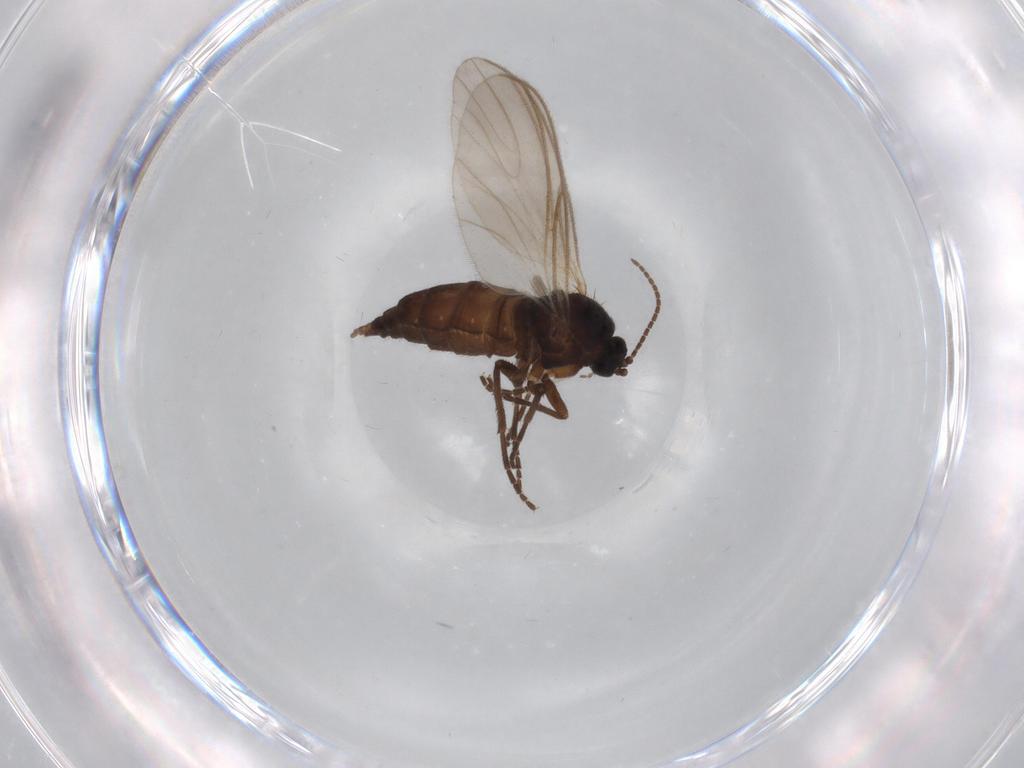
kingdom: Animalia
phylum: Arthropoda
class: Insecta
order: Diptera
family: Sciaridae
